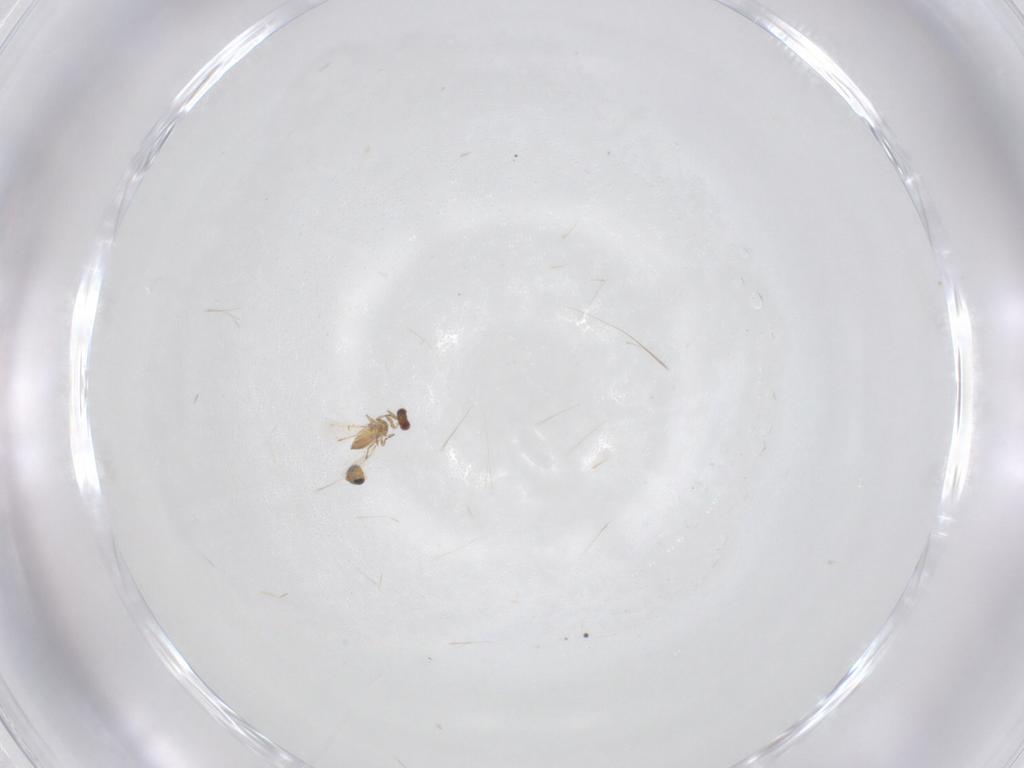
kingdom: Animalia
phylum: Arthropoda
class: Insecta
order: Hymenoptera
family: Trichogrammatidae
